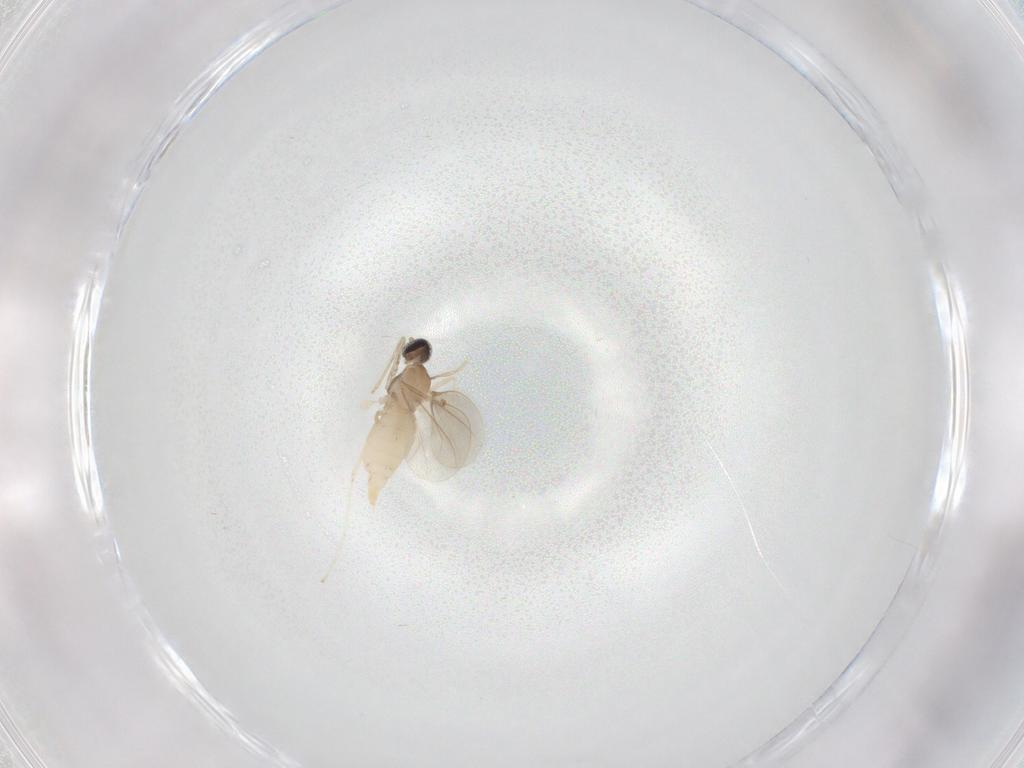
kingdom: Animalia
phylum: Arthropoda
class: Insecta
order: Diptera
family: Cecidomyiidae
